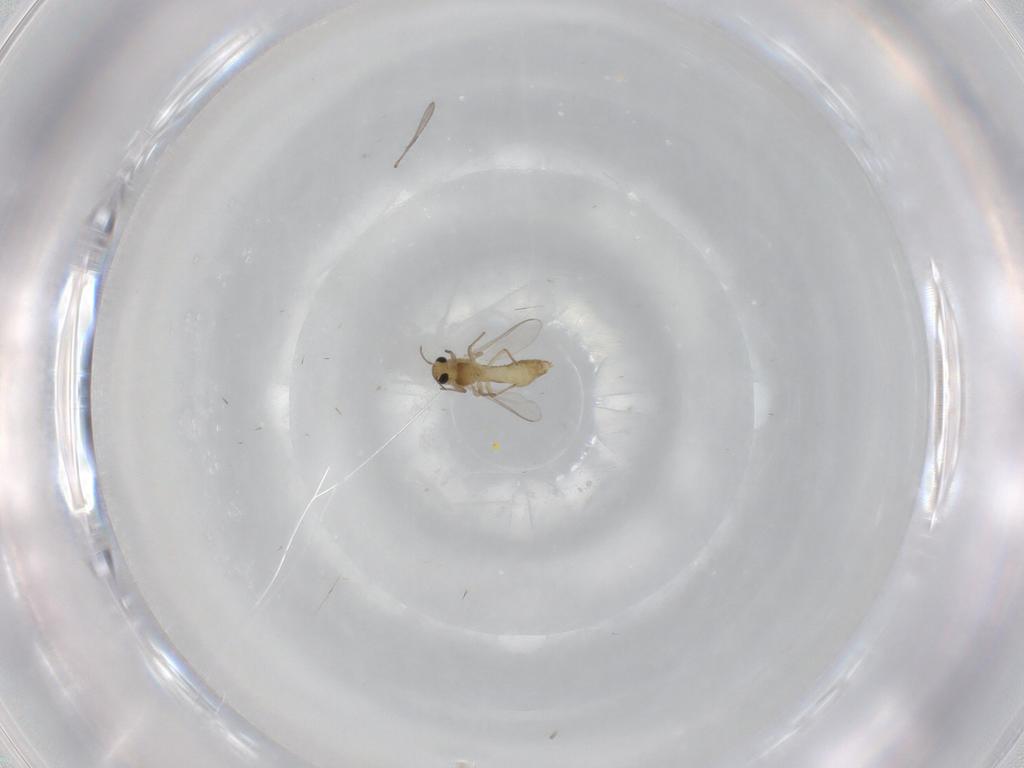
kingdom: Animalia
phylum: Arthropoda
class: Insecta
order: Diptera
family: Chironomidae
